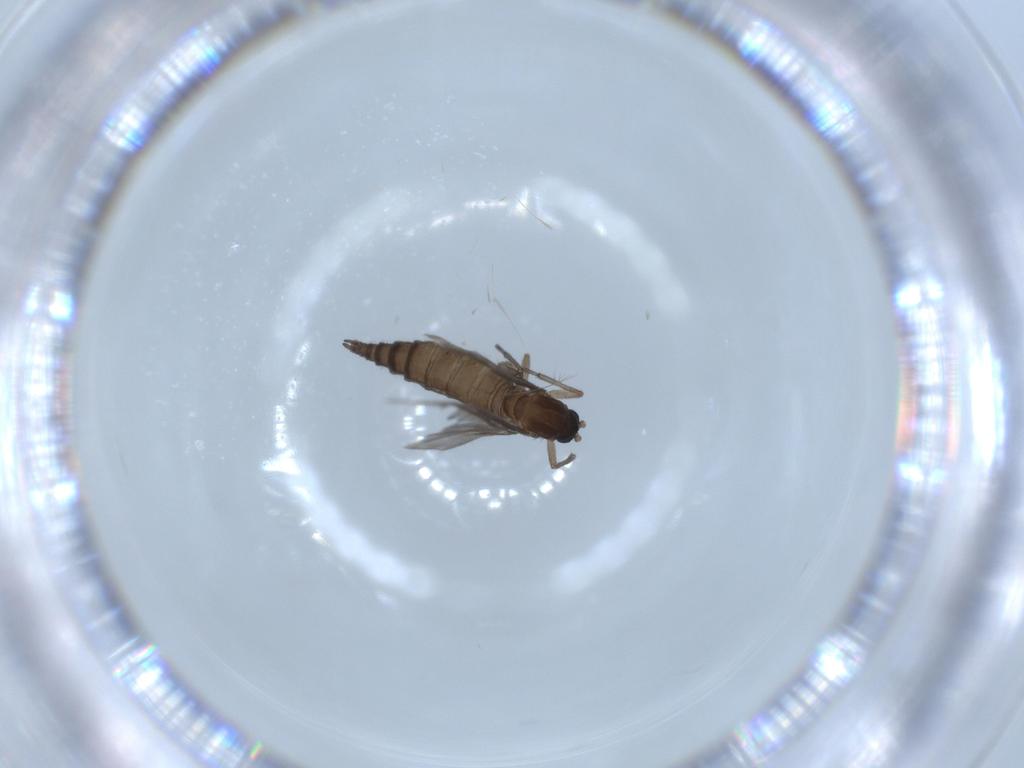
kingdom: Animalia
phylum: Arthropoda
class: Insecta
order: Diptera
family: Sciaridae
